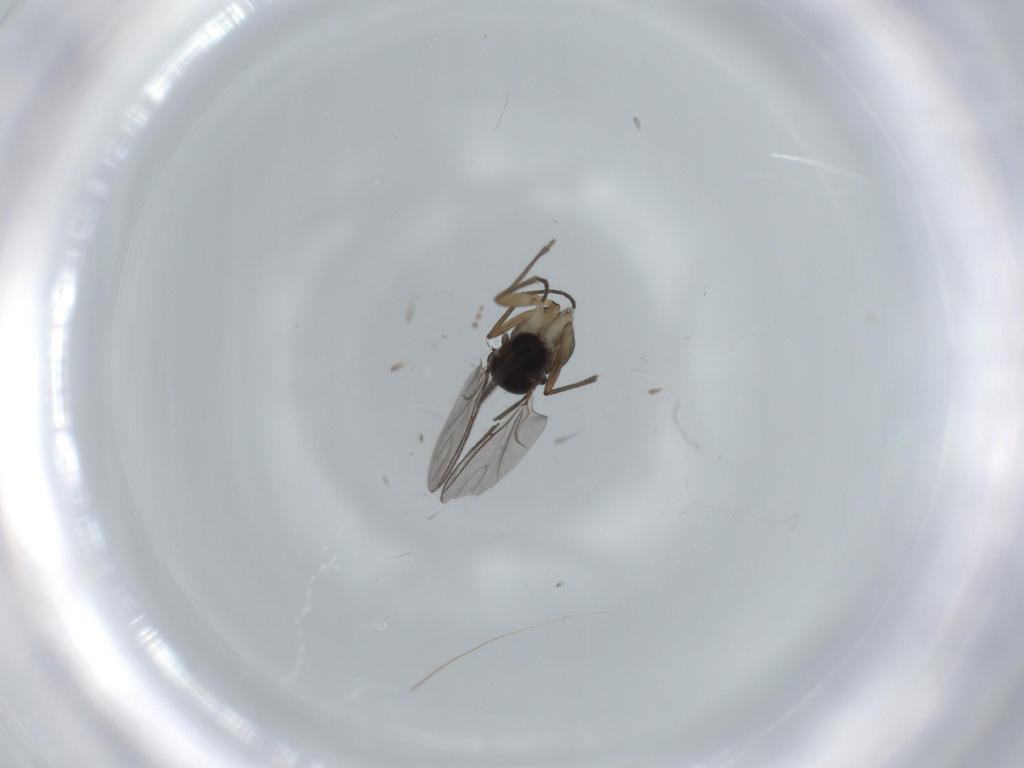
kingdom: Animalia
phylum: Arthropoda
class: Insecta
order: Diptera
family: Sciaridae
